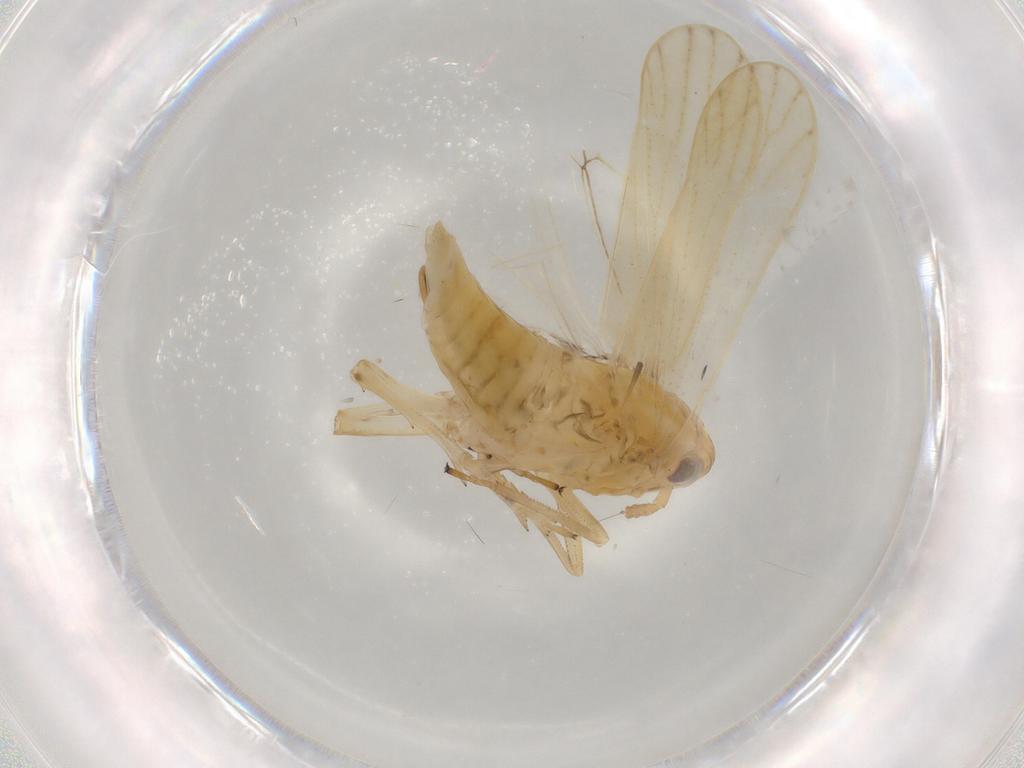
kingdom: Animalia
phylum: Arthropoda
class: Insecta
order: Hemiptera
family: Delphacidae
